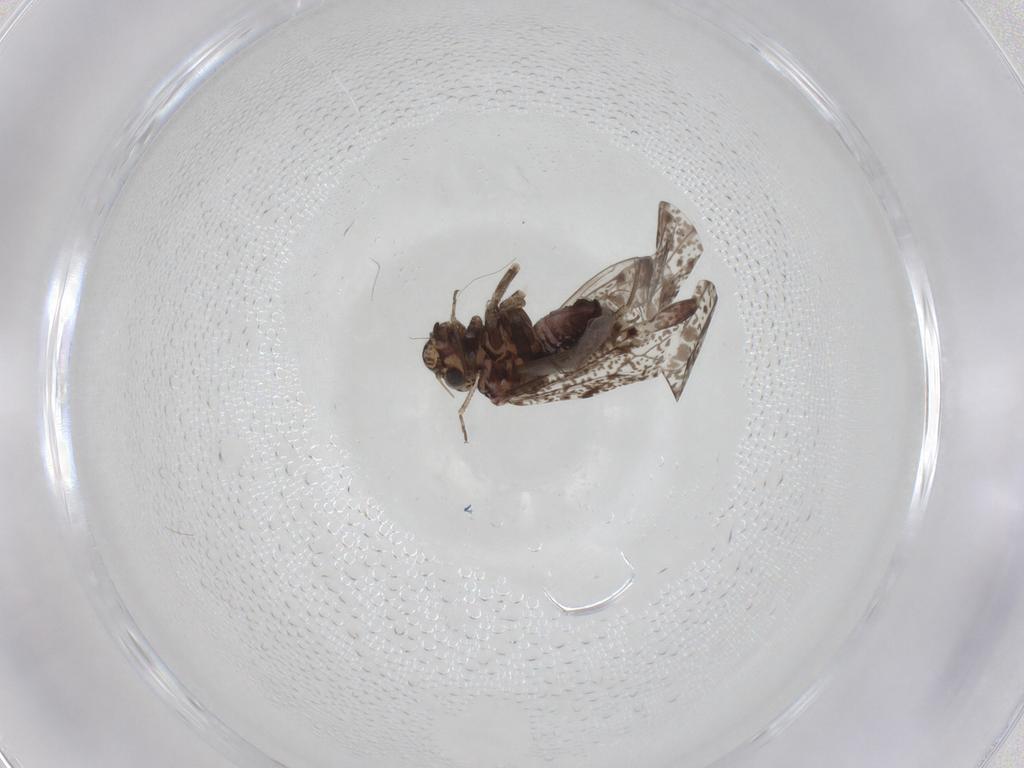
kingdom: Animalia
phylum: Arthropoda
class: Insecta
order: Psocodea
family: Psocidae
